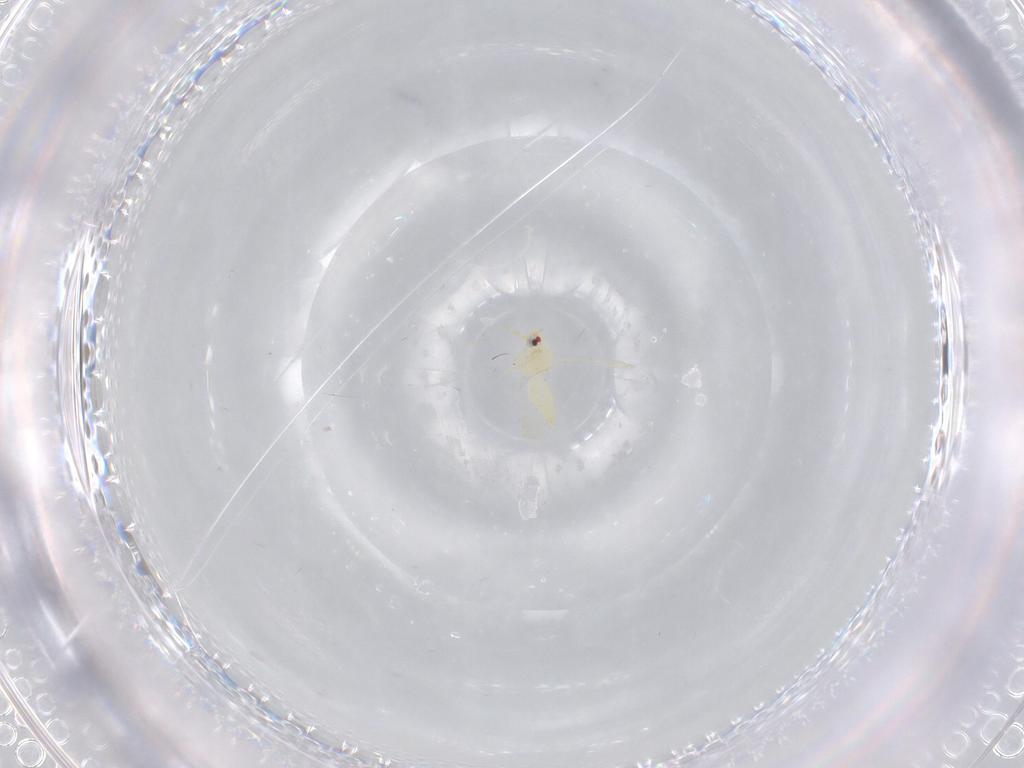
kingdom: Animalia
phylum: Arthropoda
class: Insecta
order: Hemiptera
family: Aleyrodidae
